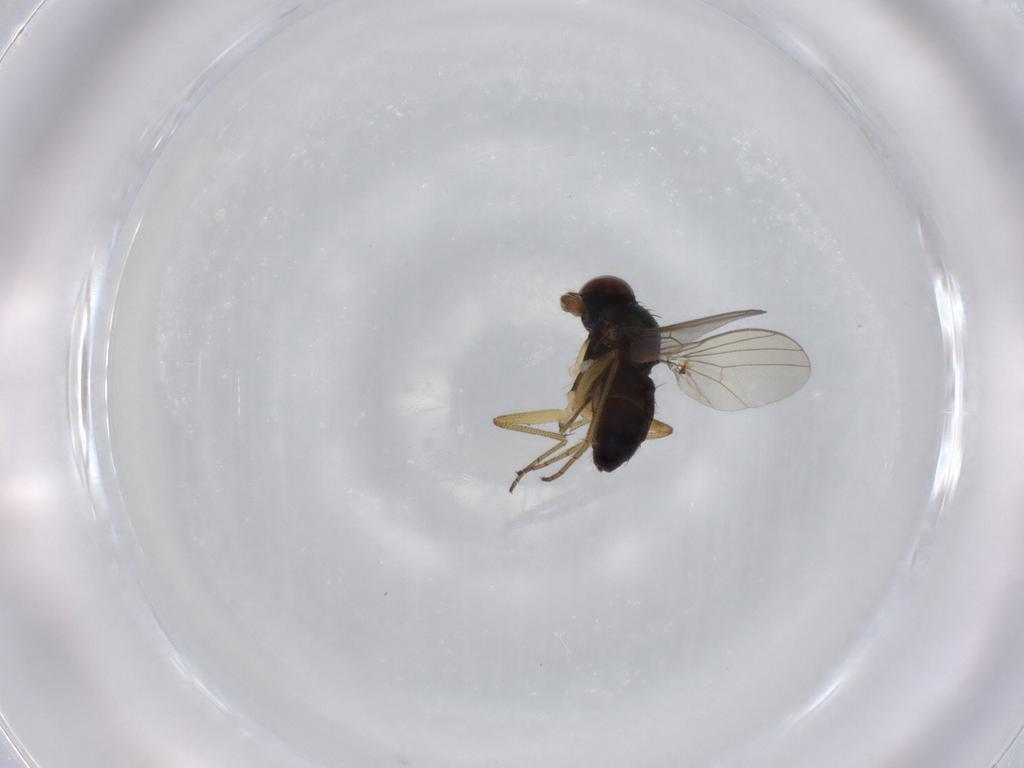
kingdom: Animalia
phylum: Arthropoda
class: Insecta
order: Diptera
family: Dolichopodidae
